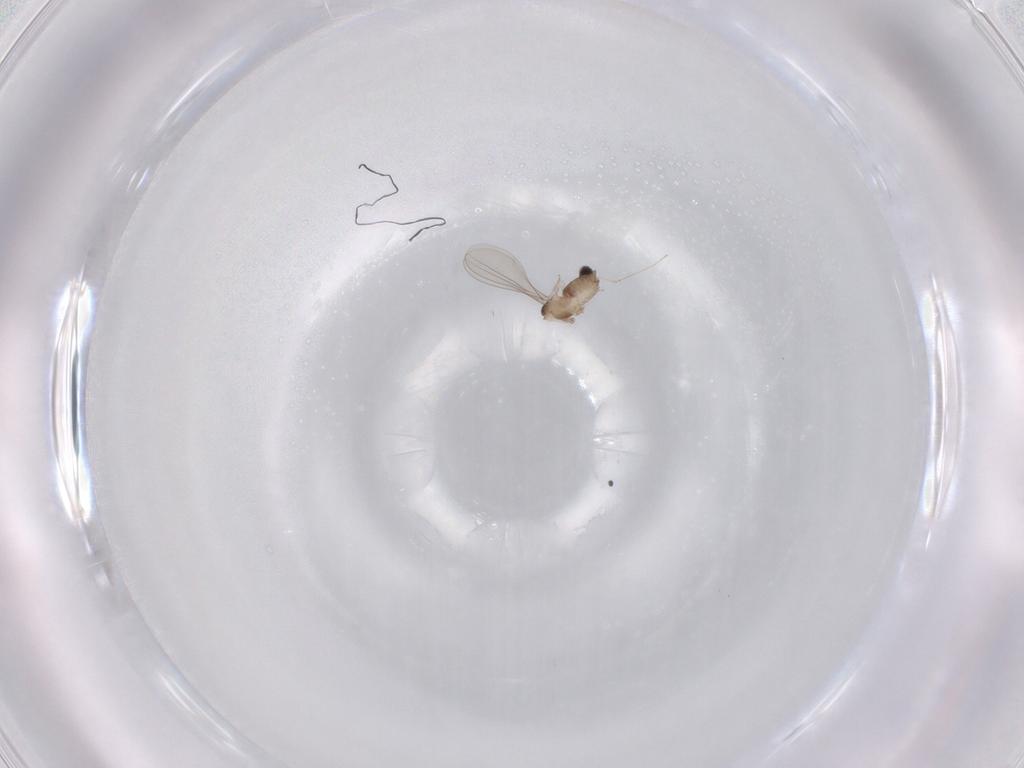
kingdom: Animalia
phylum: Arthropoda
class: Insecta
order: Diptera
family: Cecidomyiidae
